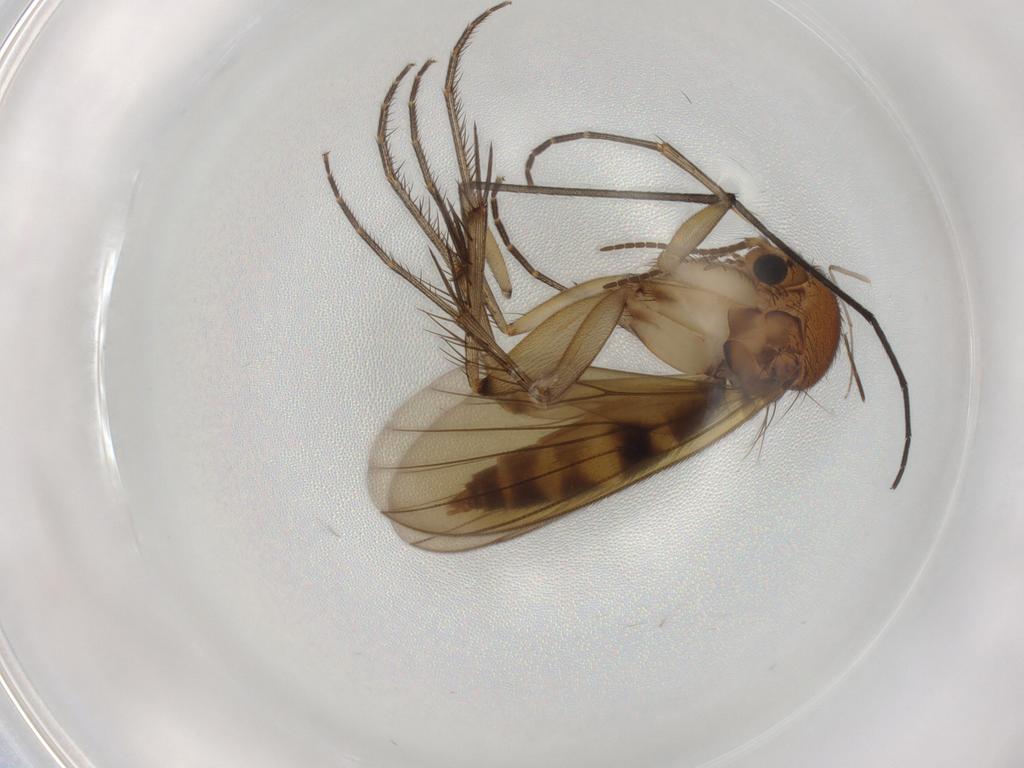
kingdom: Animalia
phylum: Arthropoda
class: Insecta
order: Diptera
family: Sciaridae
